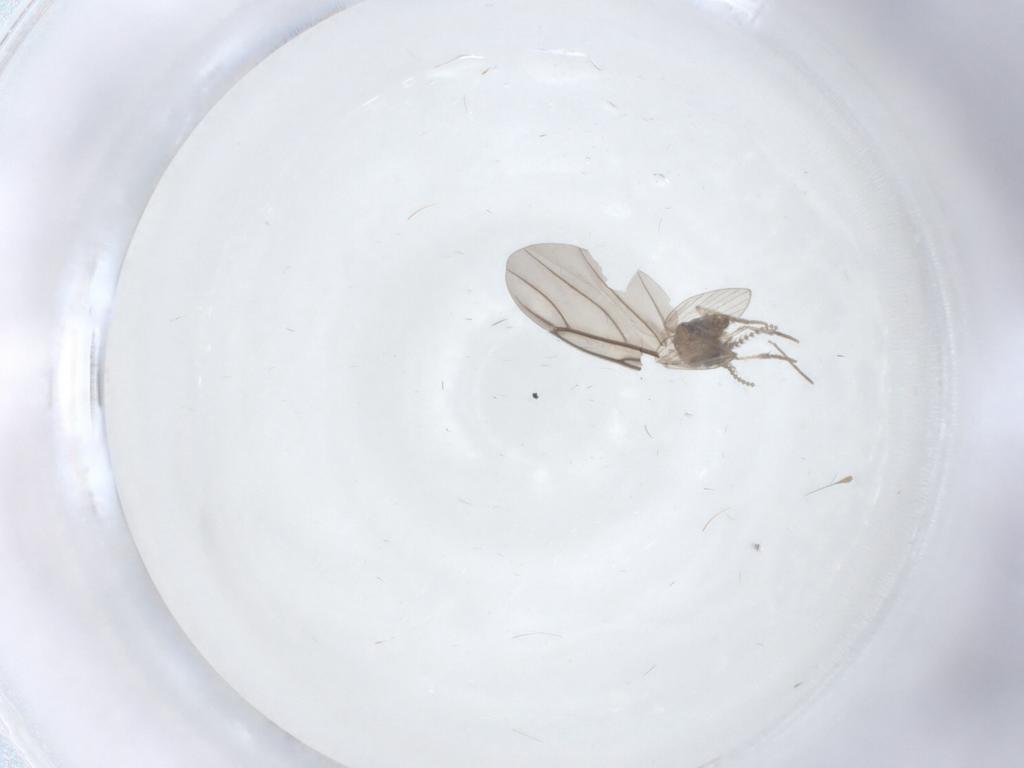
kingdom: Animalia
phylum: Arthropoda
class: Insecta
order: Diptera
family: Psychodidae
